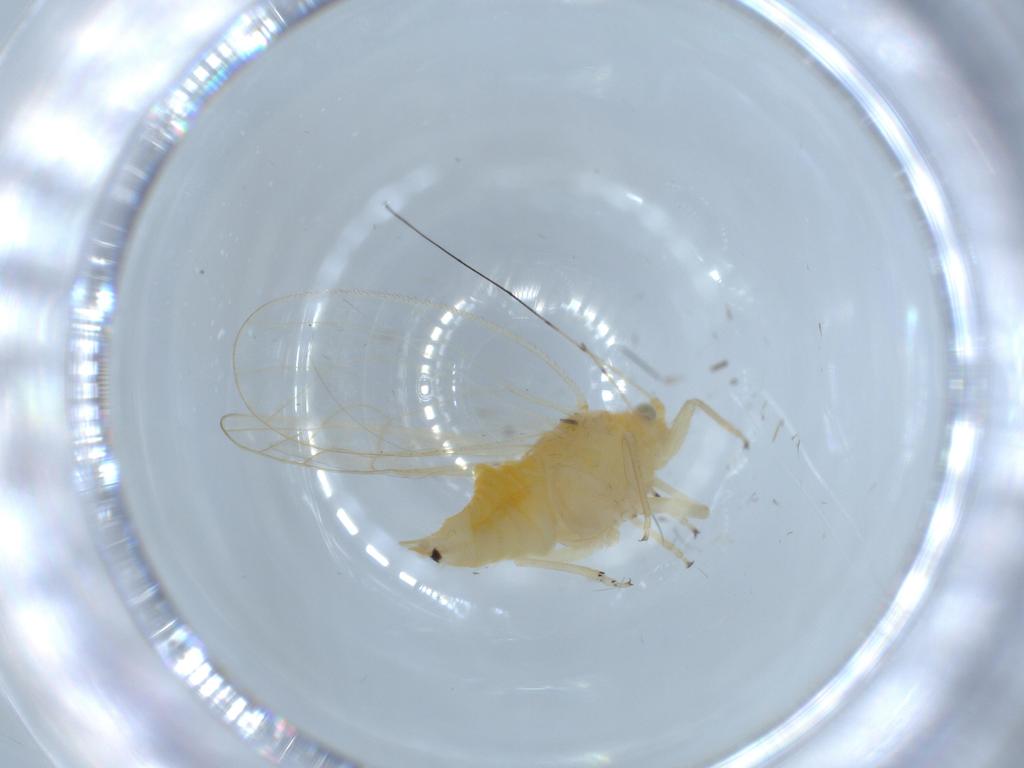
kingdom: Animalia
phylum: Arthropoda
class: Insecta
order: Hemiptera
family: Psyllidae
